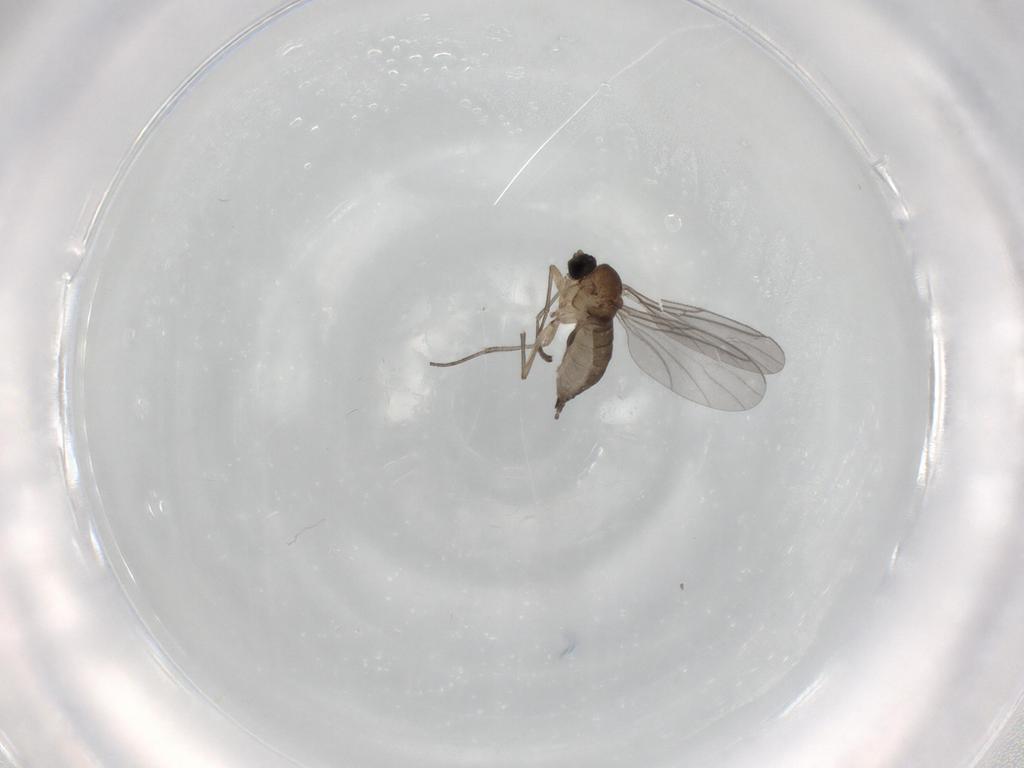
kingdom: Animalia
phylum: Arthropoda
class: Insecta
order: Diptera
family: Sciaridae
